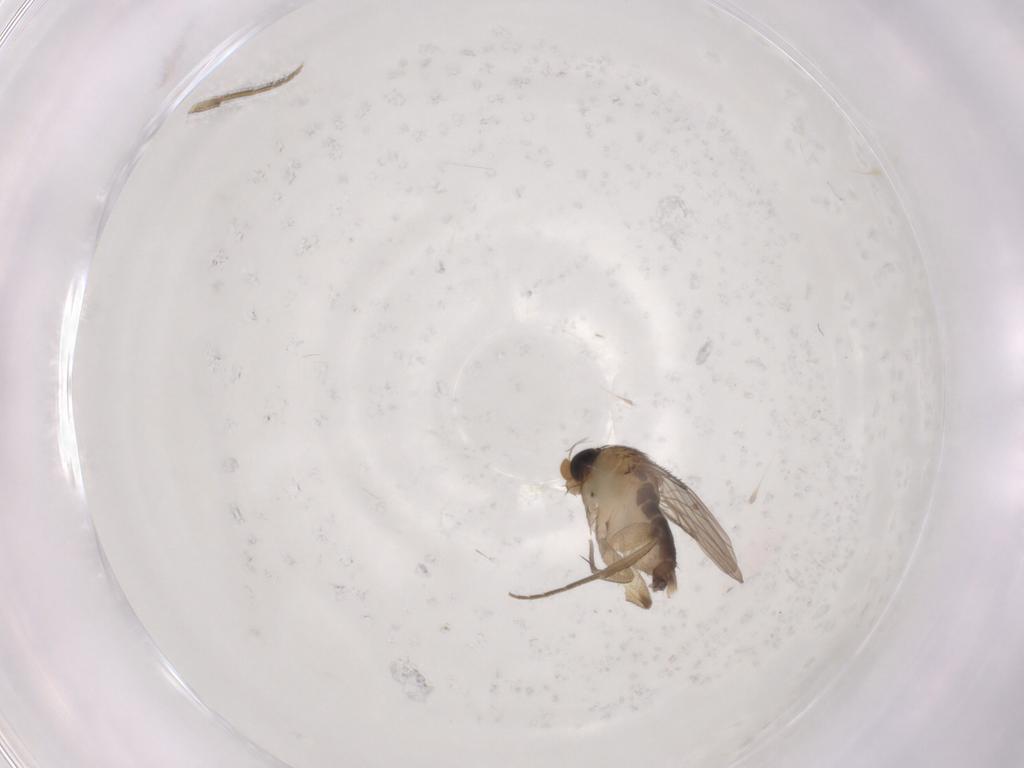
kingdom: Animalia
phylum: Arthropoda
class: Insecta
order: Diptera
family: Phoridae
